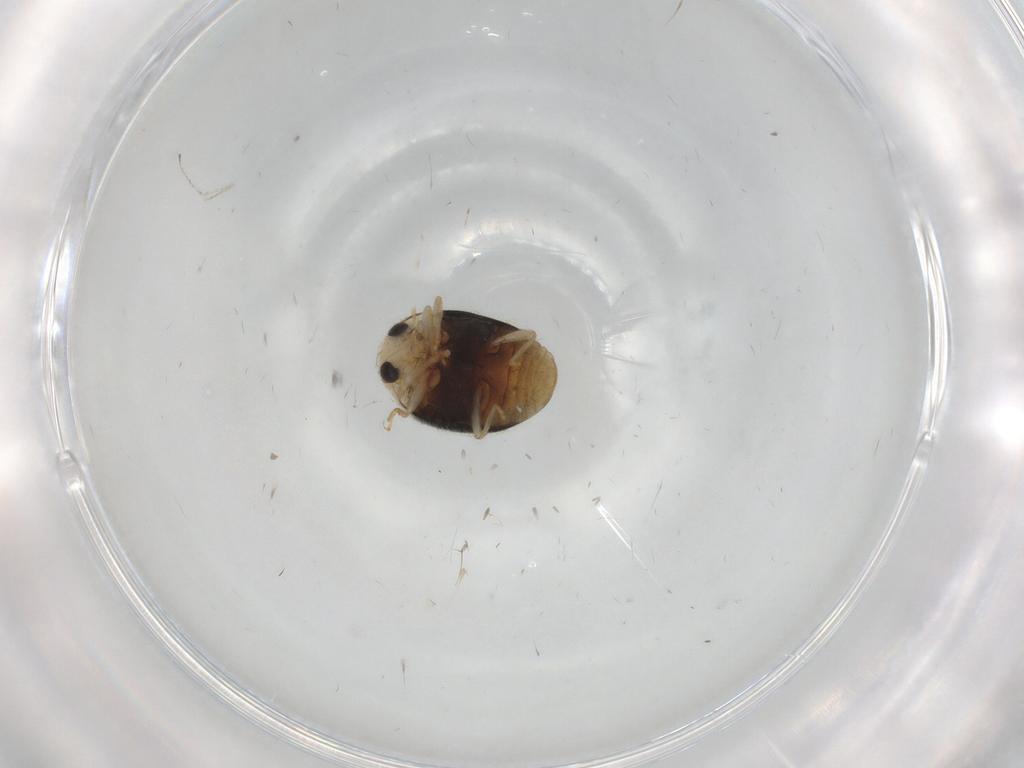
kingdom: Animalia
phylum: Arthropoda
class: Insecta
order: Coleoptera
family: Coccinellidae
